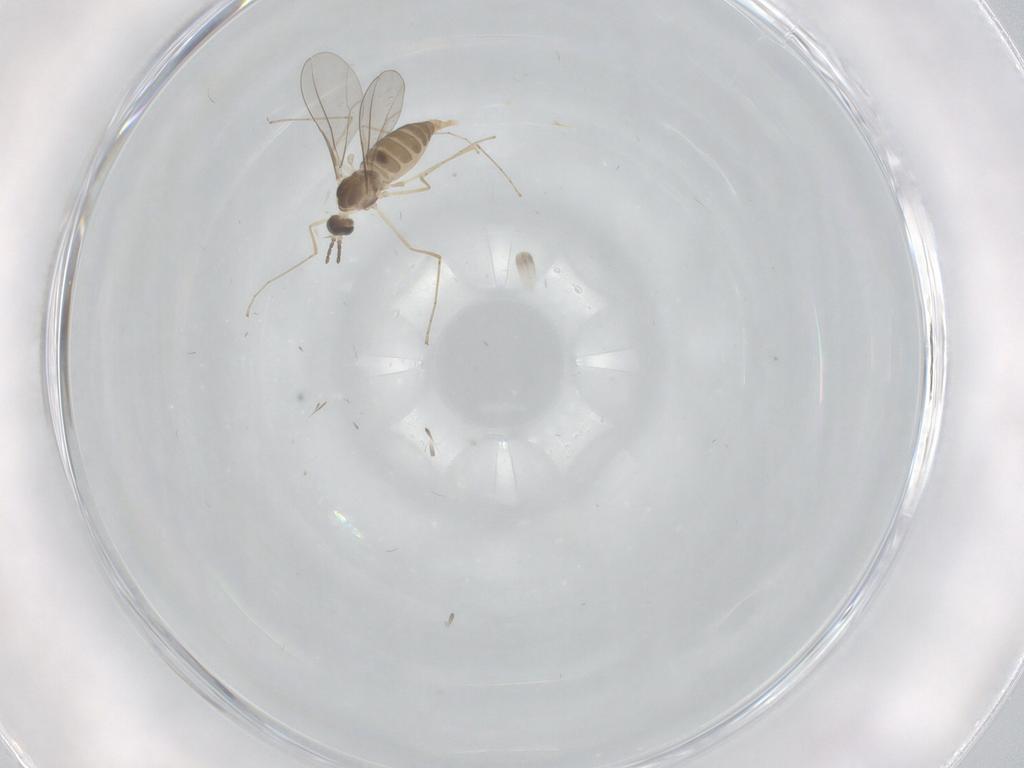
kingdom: Animalia
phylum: Arthropoda
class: Insecta
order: Diptera
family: Cecidomyiidae
